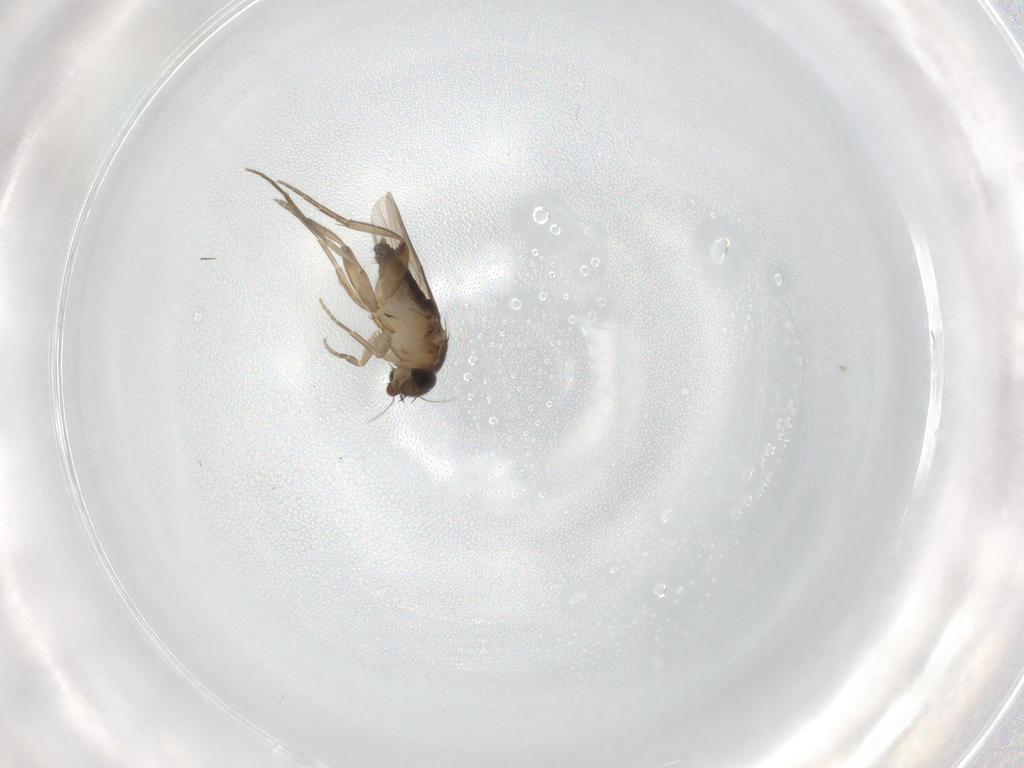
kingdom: Animalia
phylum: Arthropoda
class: Insecta
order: Diptera
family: Phoridae
